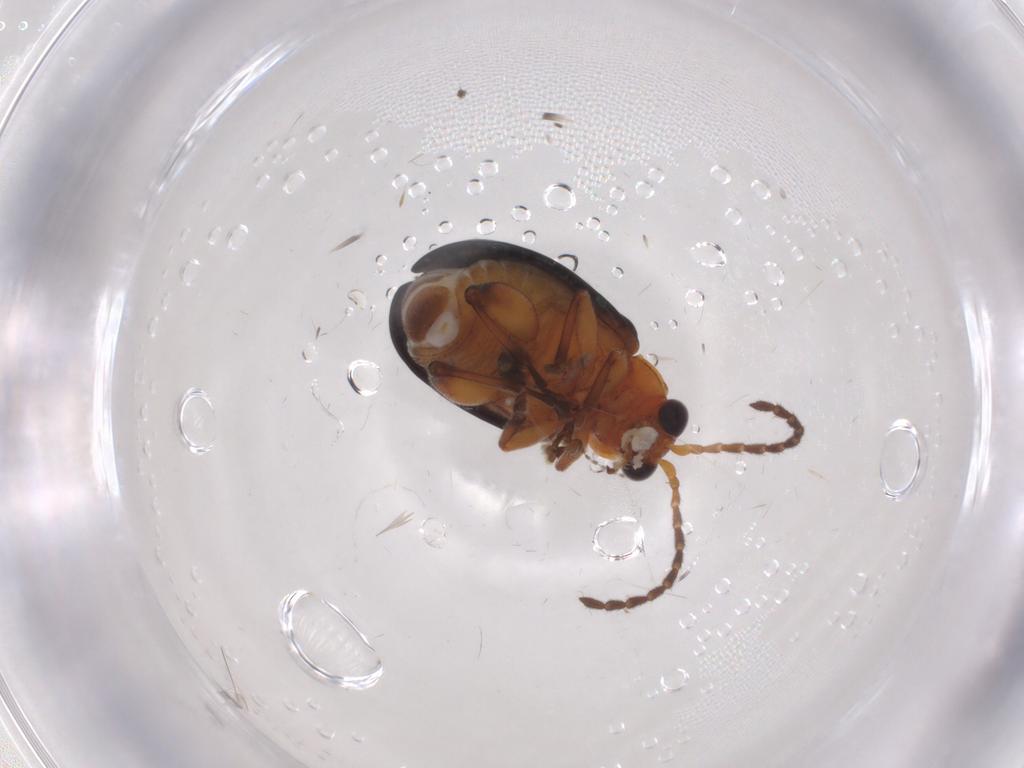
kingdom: Animalia
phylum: Arthropoda
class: Insecta
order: Coleoptera
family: Chrysomelidae
